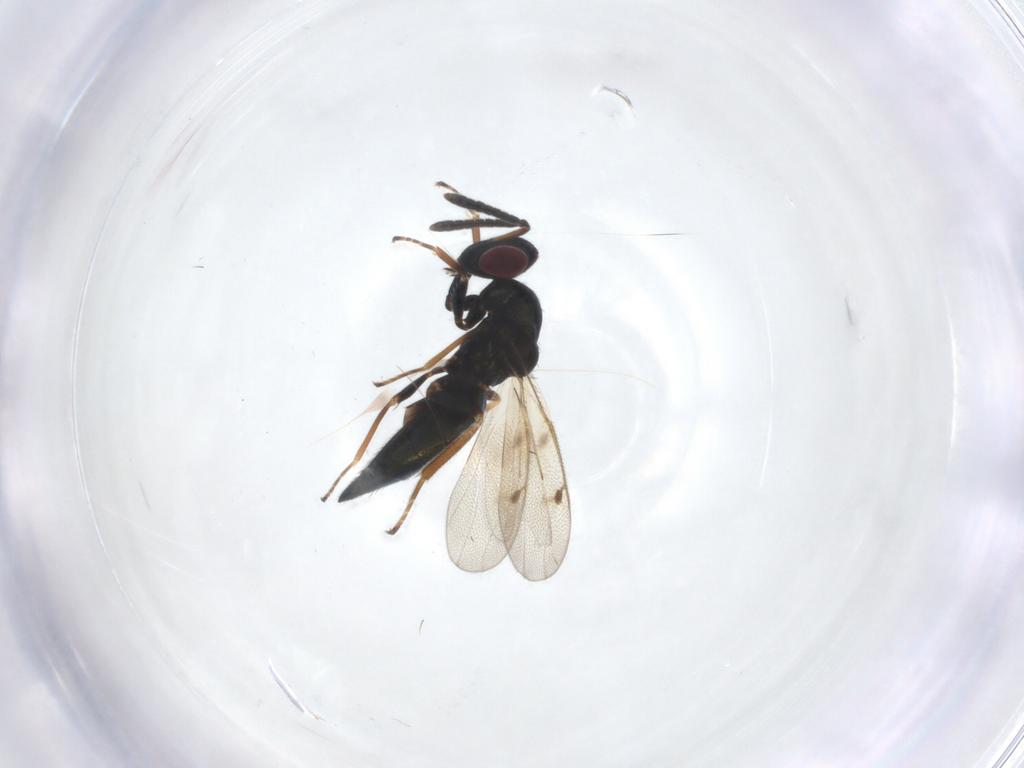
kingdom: Animalia
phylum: Arthropoda
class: Insecta
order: Hymenoptera
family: Pteromalidae
